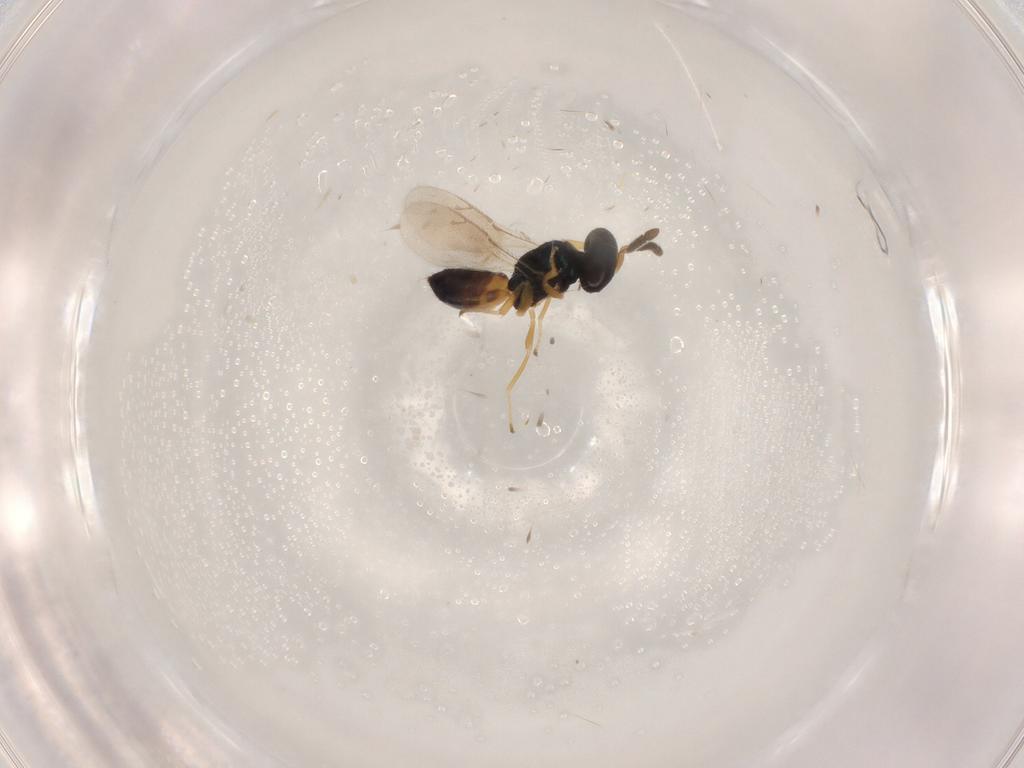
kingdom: Animalia
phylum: Arthropoda
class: Insecta
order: Hymenoptera
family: Pteromalidae
